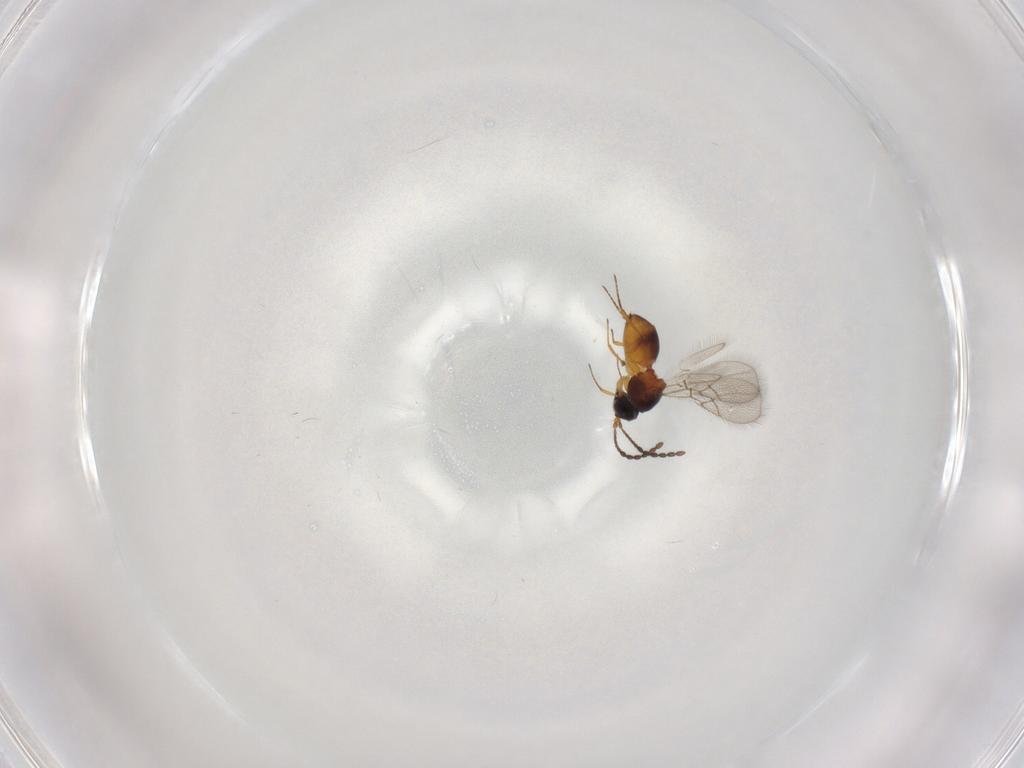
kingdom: Animalia
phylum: Arthropoda
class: Insecta
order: Hymenoptera
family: Figitidae
